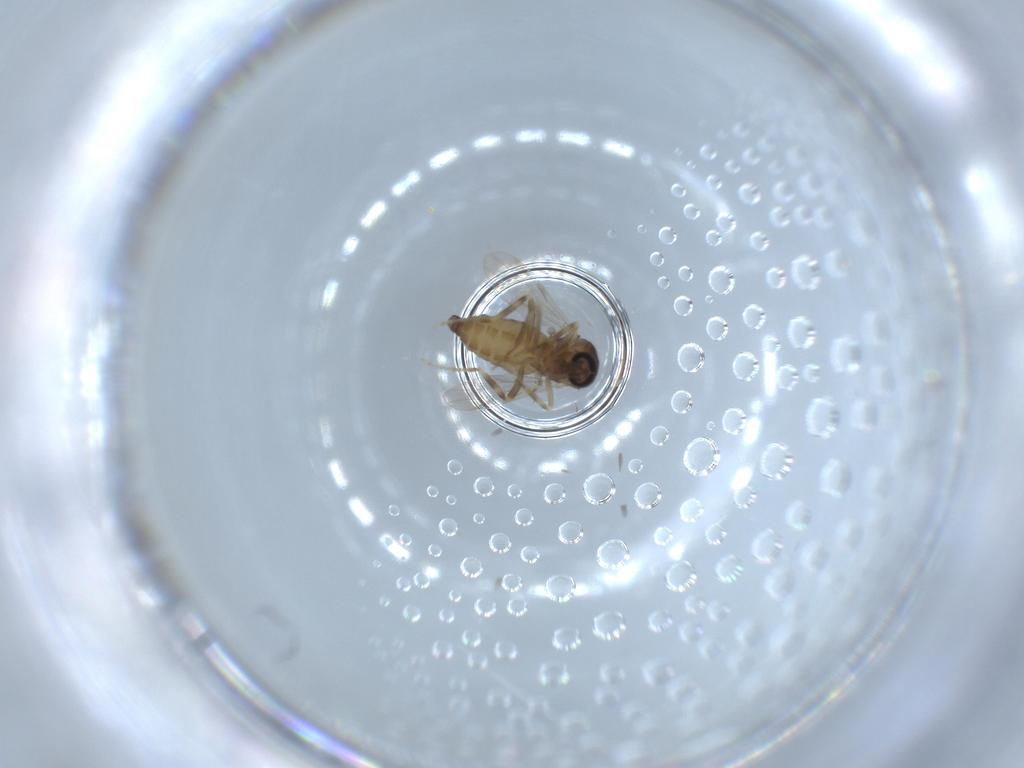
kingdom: Animalia
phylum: Arthropoda
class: Insecta
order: Diptera
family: Ceratopogonidae
